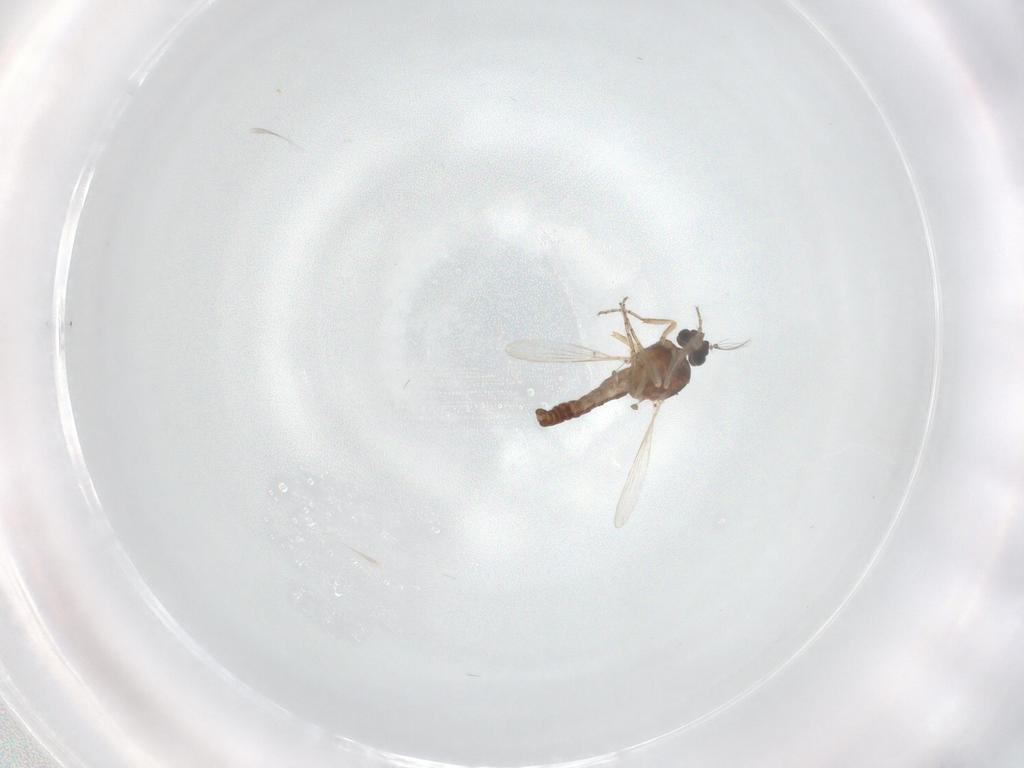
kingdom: Animalia
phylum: Arthropoda
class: Insecta
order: Diptera
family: Ceratopogonidae
